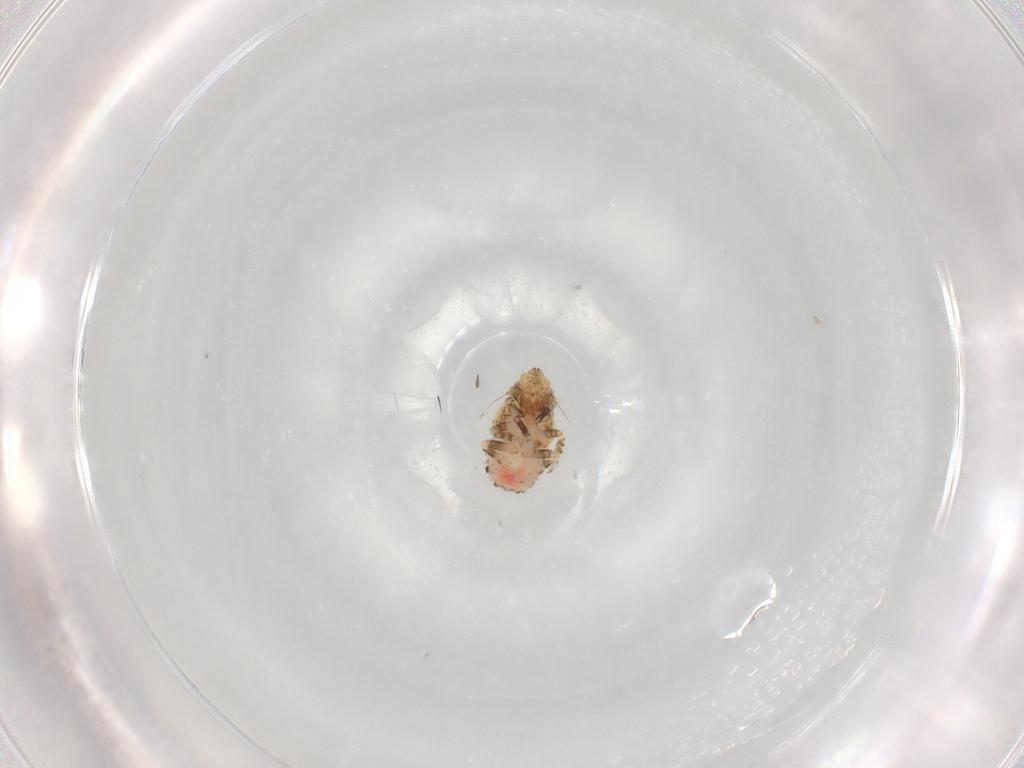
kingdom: Animalia
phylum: Arthropoda
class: Insecta
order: Hemiptera
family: Caliscelidae
